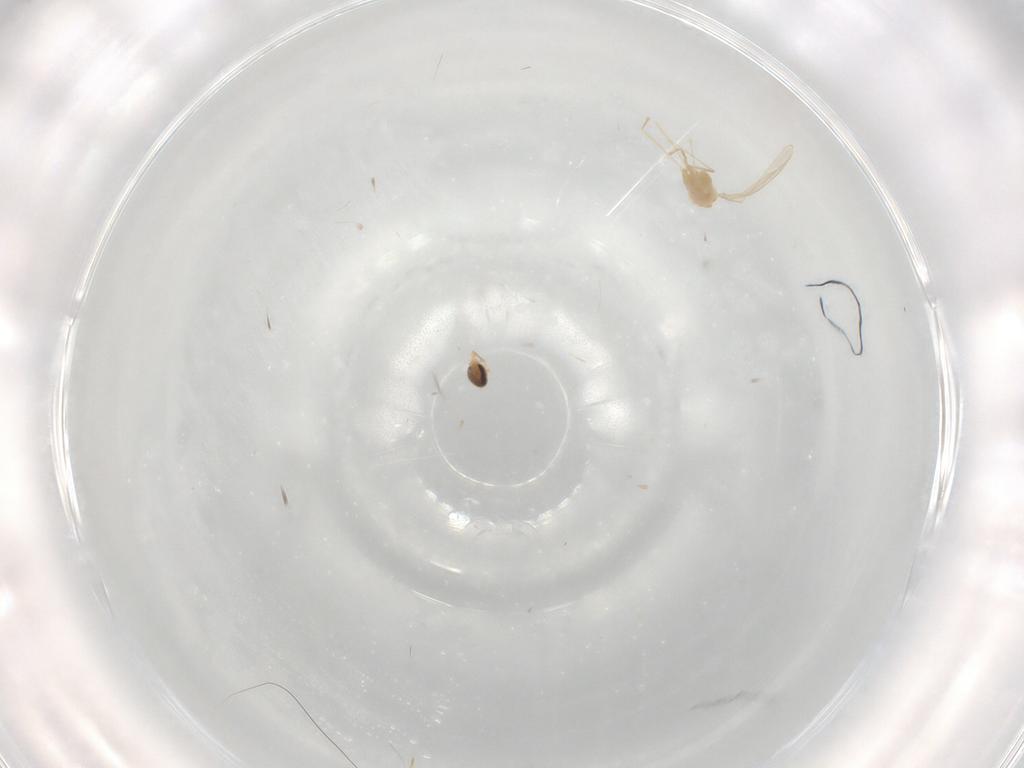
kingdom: Animalia
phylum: Arthropoda
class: Insecta
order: Diptera
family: Cecidomyiidae
